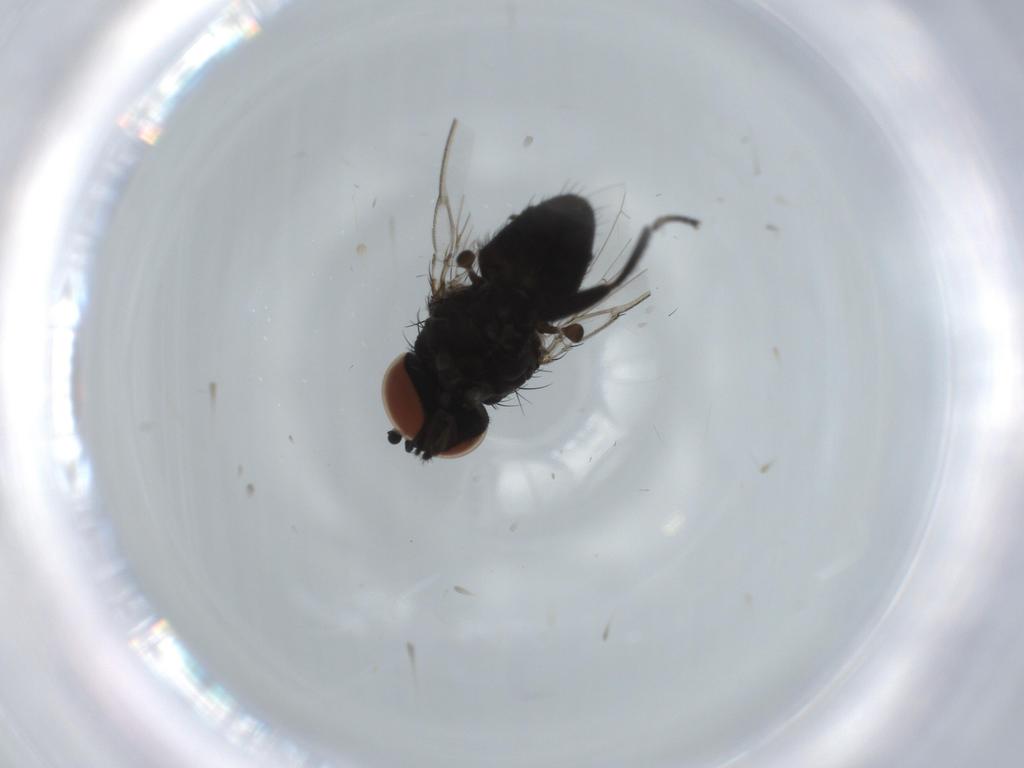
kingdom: Animalia
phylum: Arthropoda
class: Insecta
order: Diptera
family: Milichiidae
